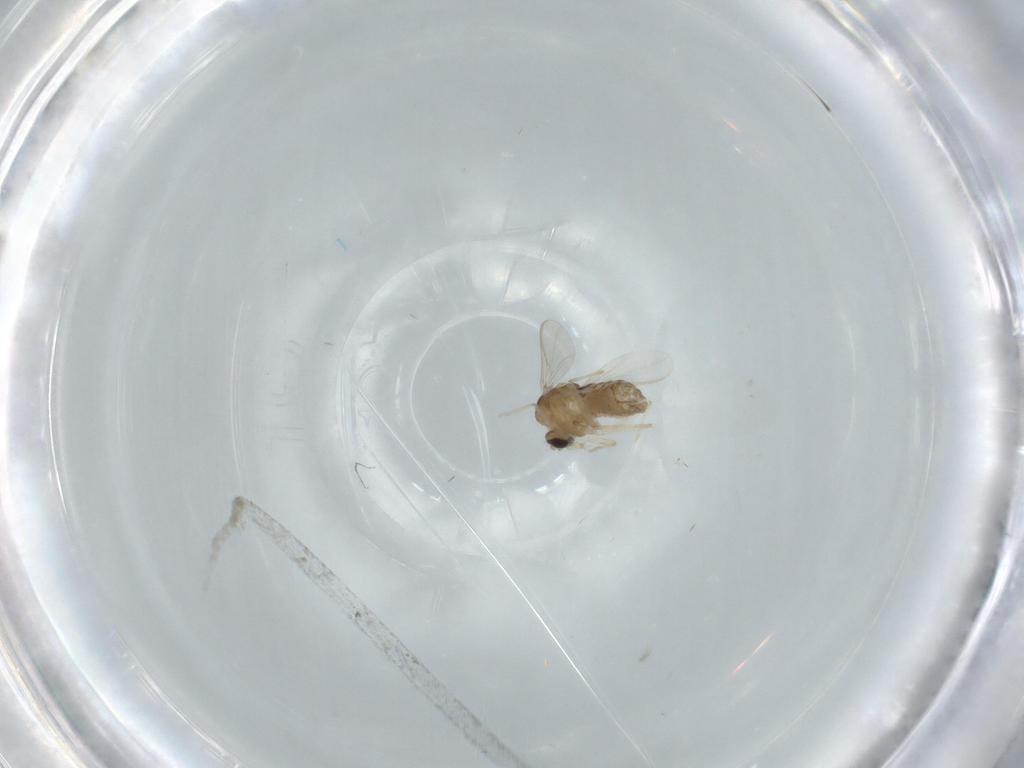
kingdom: Animalia
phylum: Arthropoda
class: Insecta
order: Diptera
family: Chironomidae
